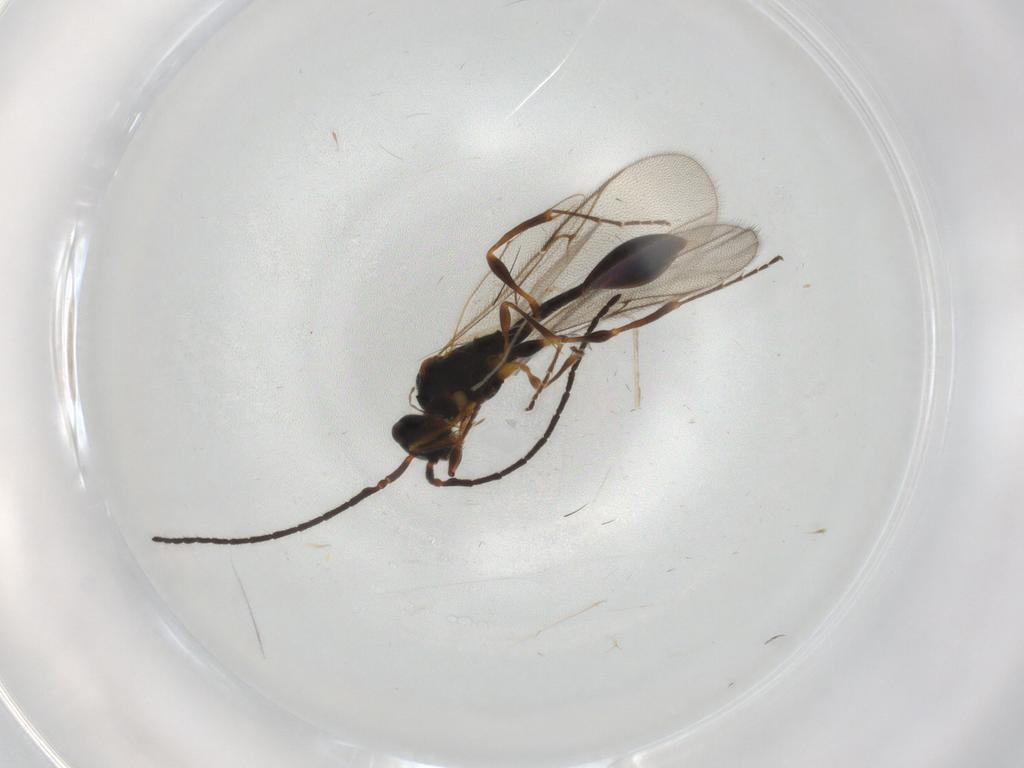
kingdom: Animalia
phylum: Arthropoda
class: Insecta
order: Hymenoptera
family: Diapriidae
